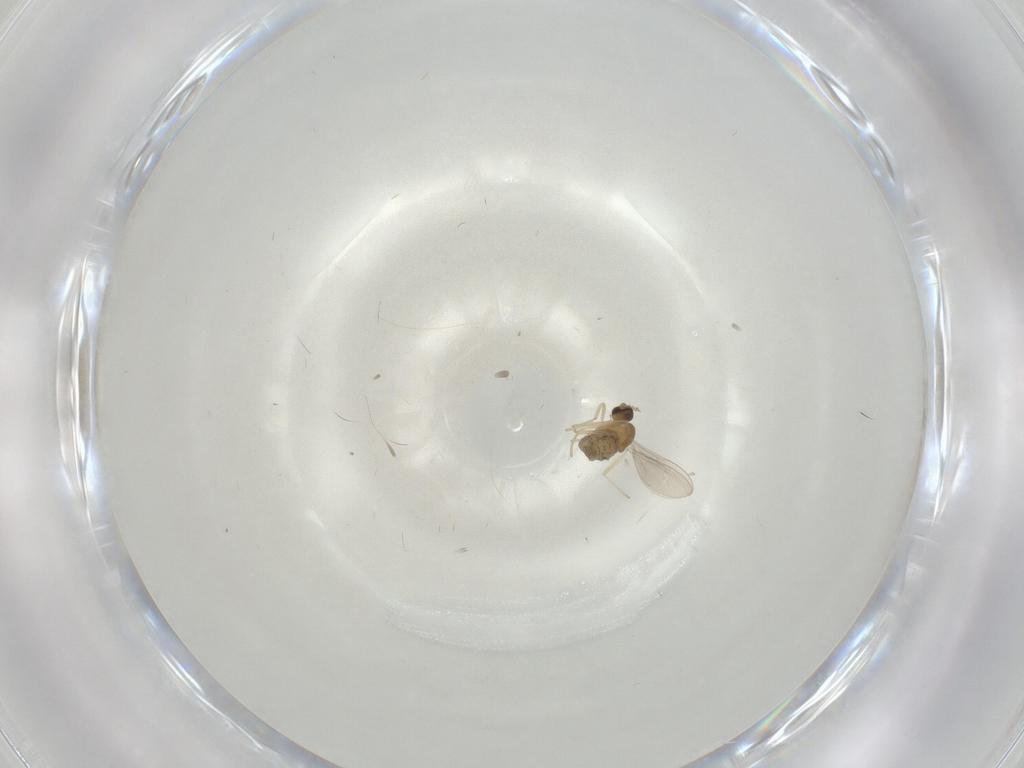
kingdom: Animalia
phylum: Arthropoda
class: Insecta
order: Diptera
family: Cecidomyiidae
